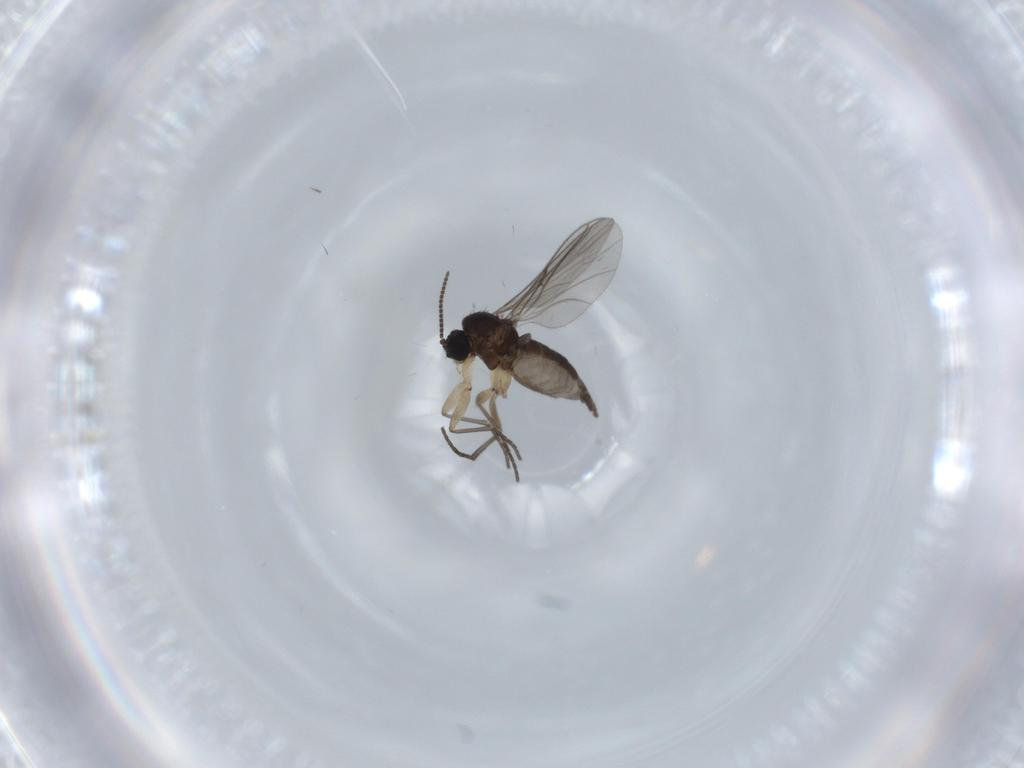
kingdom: Animalia
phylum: Arthropoda
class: Insecta
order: Diptera
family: Sciaridae
